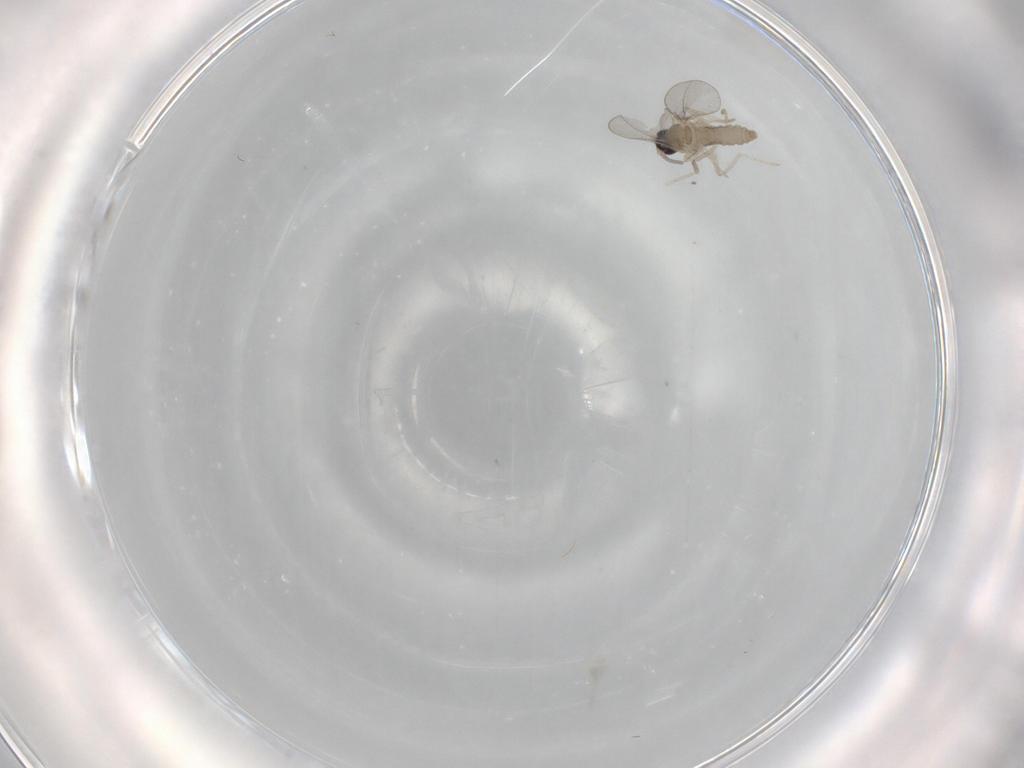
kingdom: Animalia
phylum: Arthropoda
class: Insecta
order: Diptera
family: Cecidomyiidae
